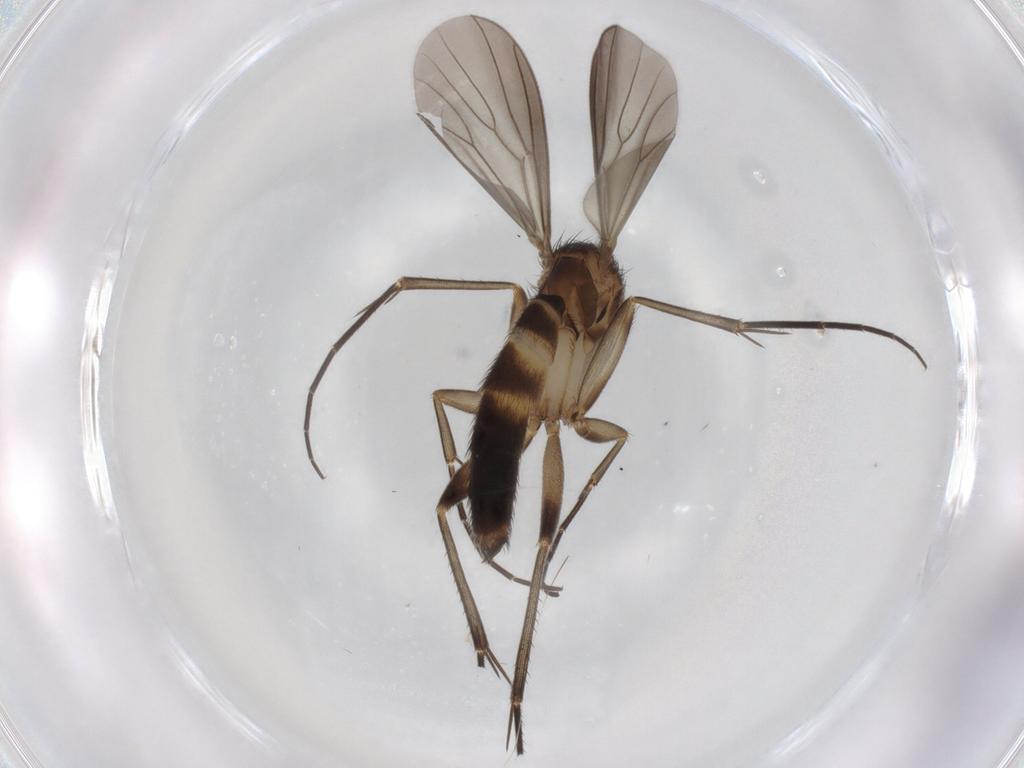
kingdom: Animalia
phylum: Arthropoda
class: Insecta
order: Diptera
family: Mycetophilidae
